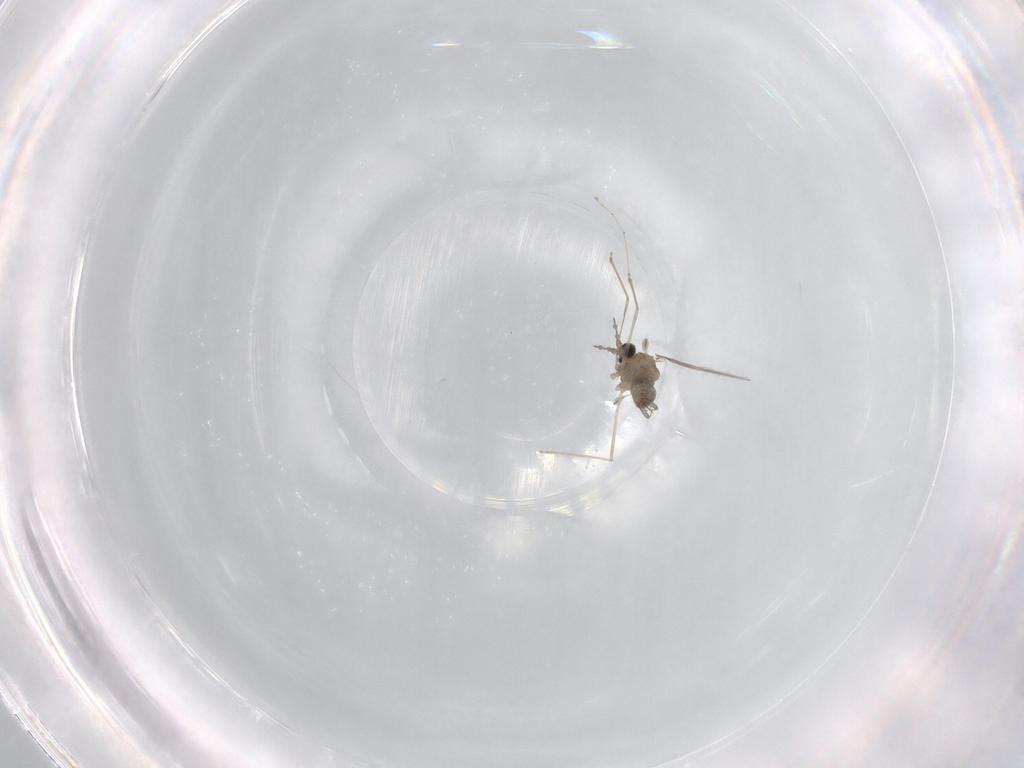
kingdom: Animalia
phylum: Arthropoda
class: Insecta
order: Diptera
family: Cecidomyiidae
